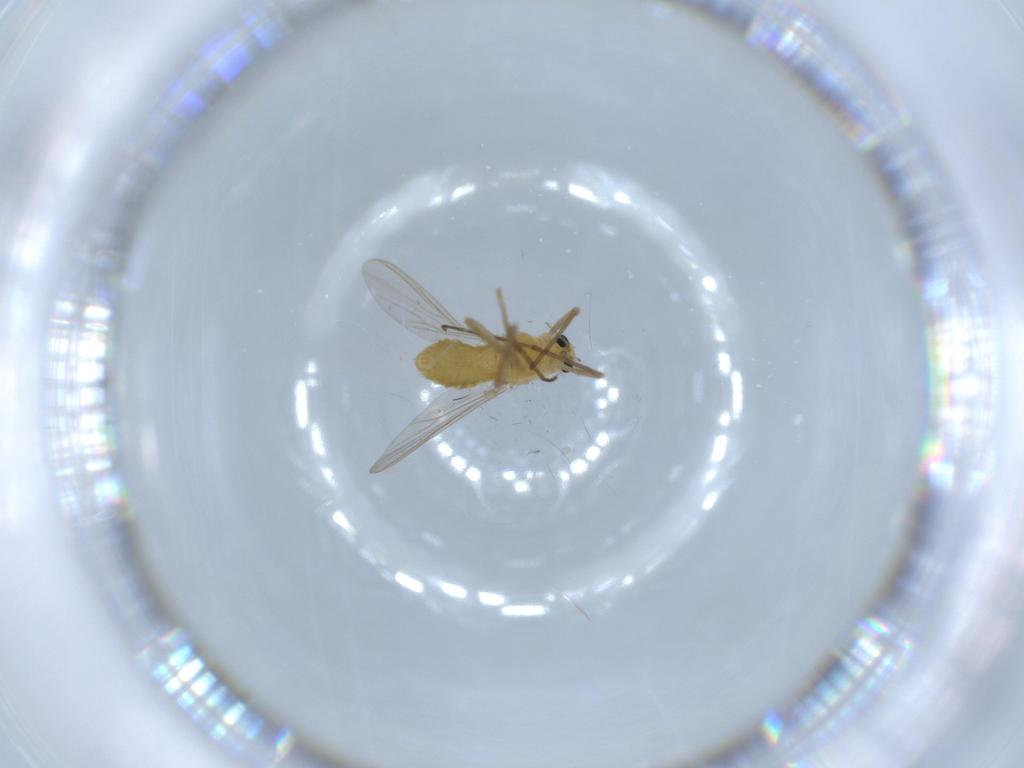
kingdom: Animalia
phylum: Arthropoda
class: Insecta
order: Diptera
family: Chironomidae
